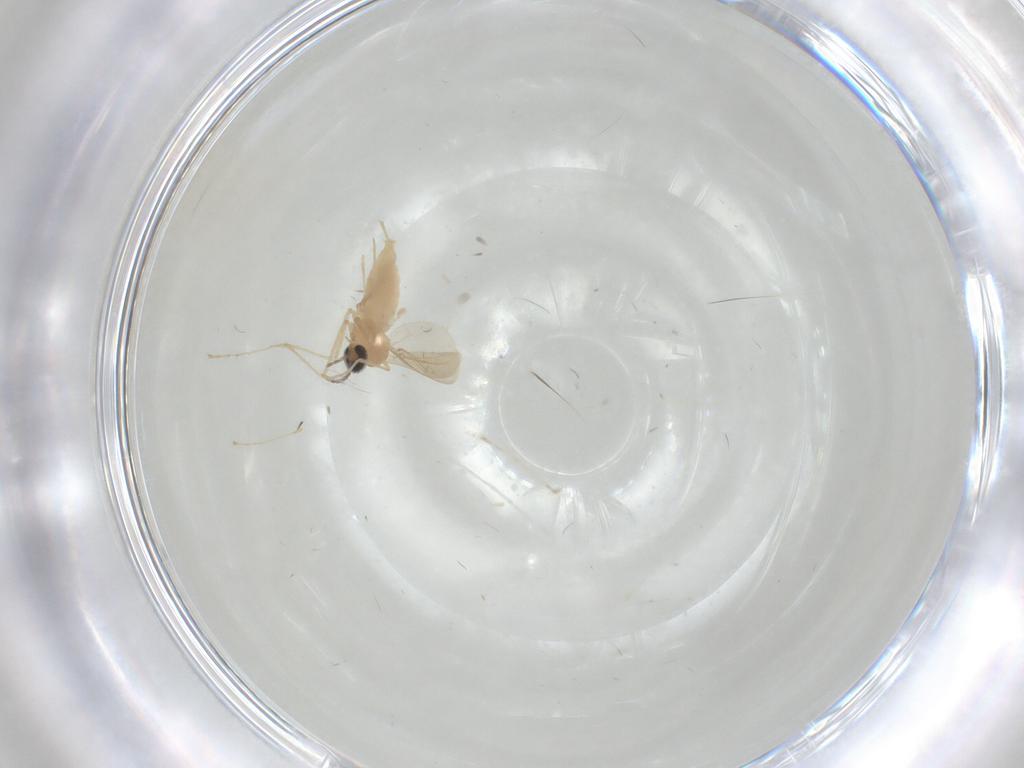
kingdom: Animalia
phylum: Arthropoda
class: Insecta
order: Diptera
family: Cecidomyiidae
